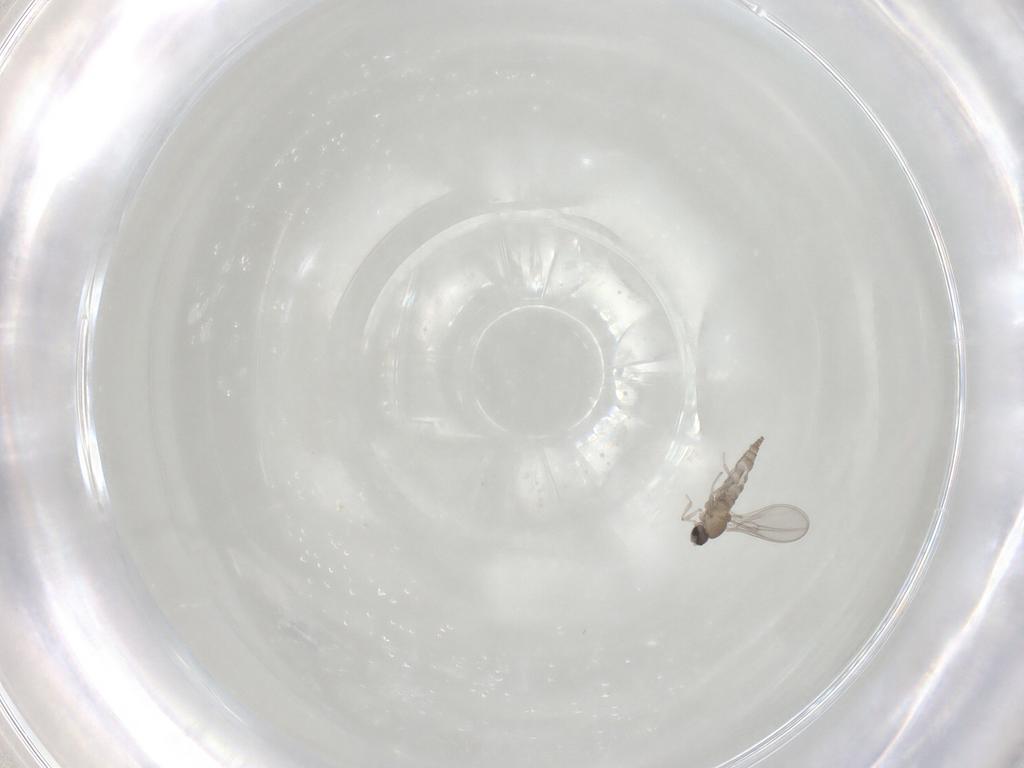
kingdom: Animalia
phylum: Arthropoda
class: Insecta
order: Diptera
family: Cecidomyiidae
